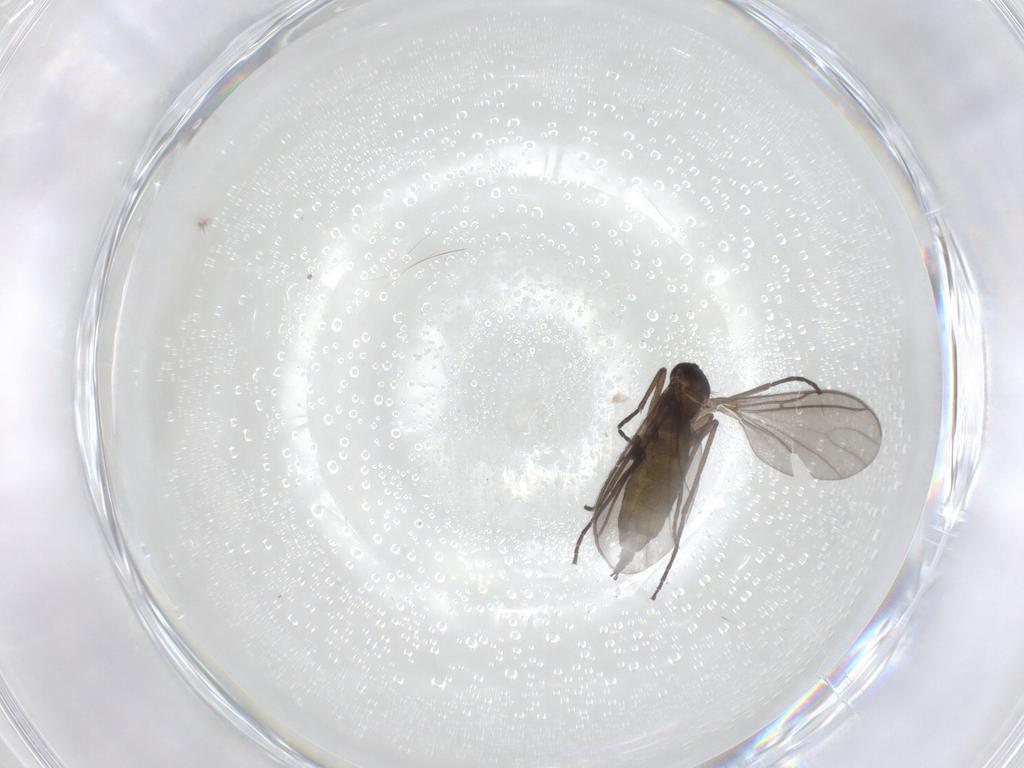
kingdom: Animalia
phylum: Arthropoda
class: Insecta
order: Diptera
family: Sciaridae
